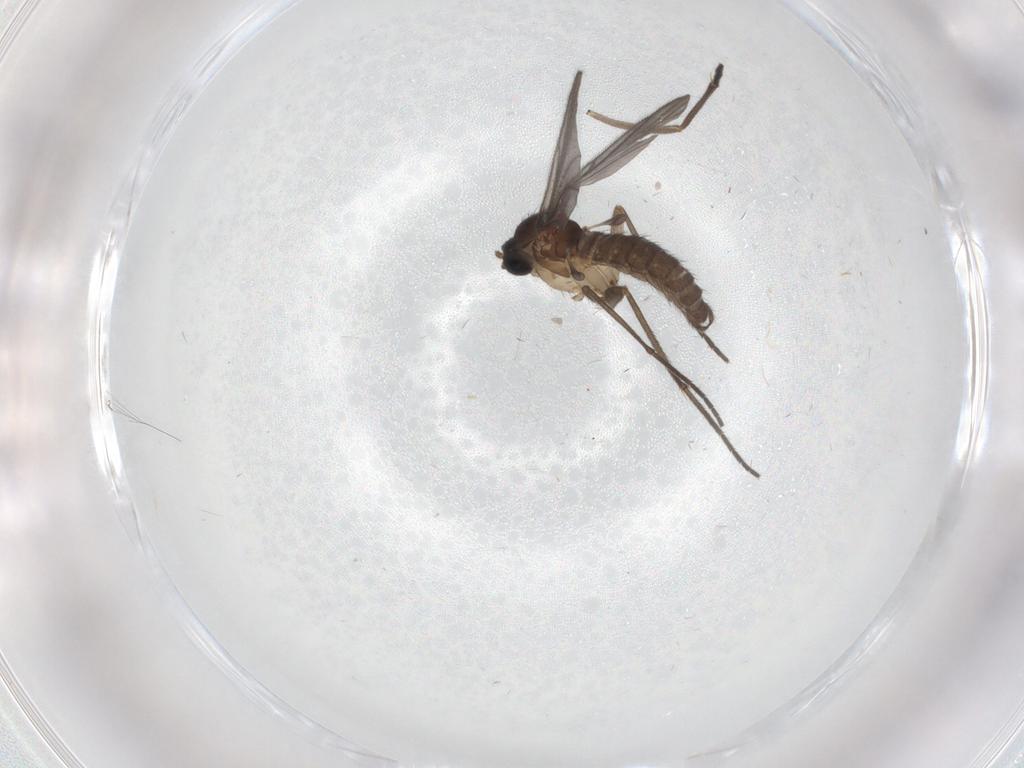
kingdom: Animalia
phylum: Arthropoda
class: Insecta
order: Diptera
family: Sciaridae
